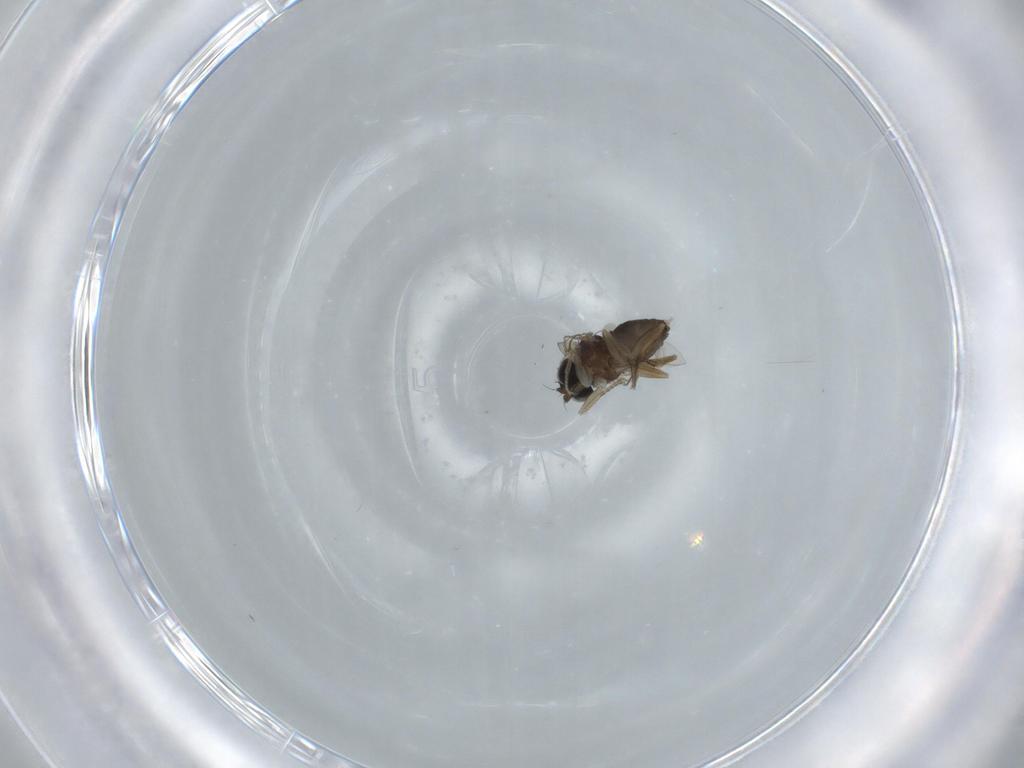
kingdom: Animalia
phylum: Arthropoda
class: Insecta
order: Diptera
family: Phoridae
